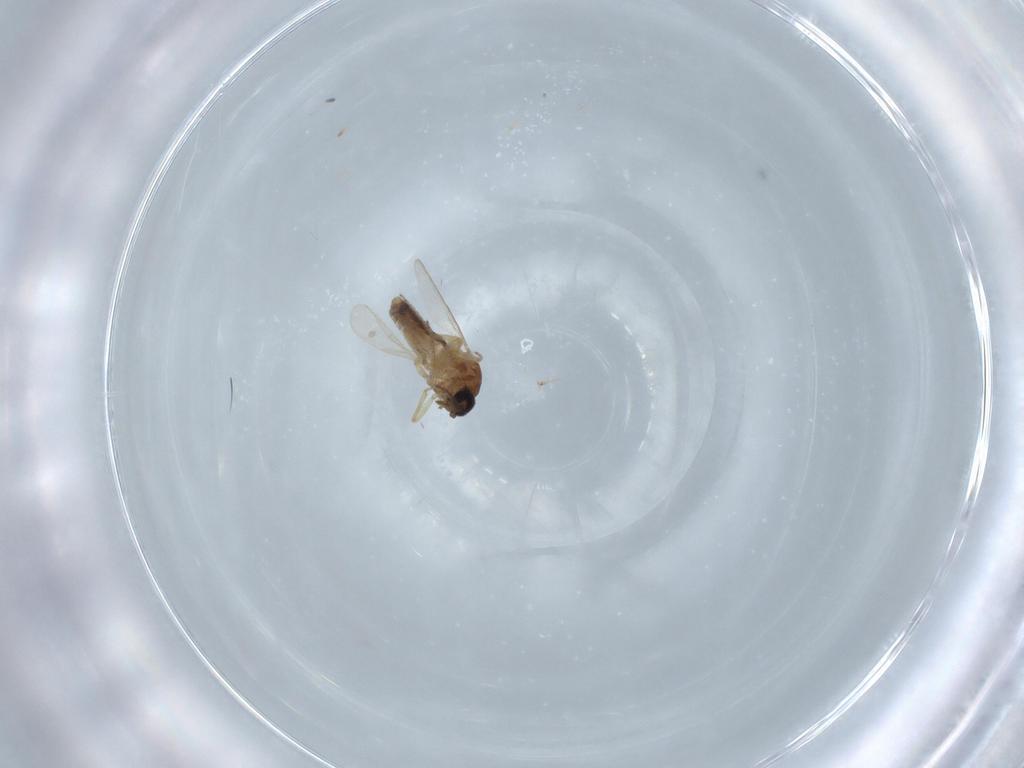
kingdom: Animalia
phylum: Arthropoda
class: Insecta
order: Diptera
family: Ceratopogonidae
